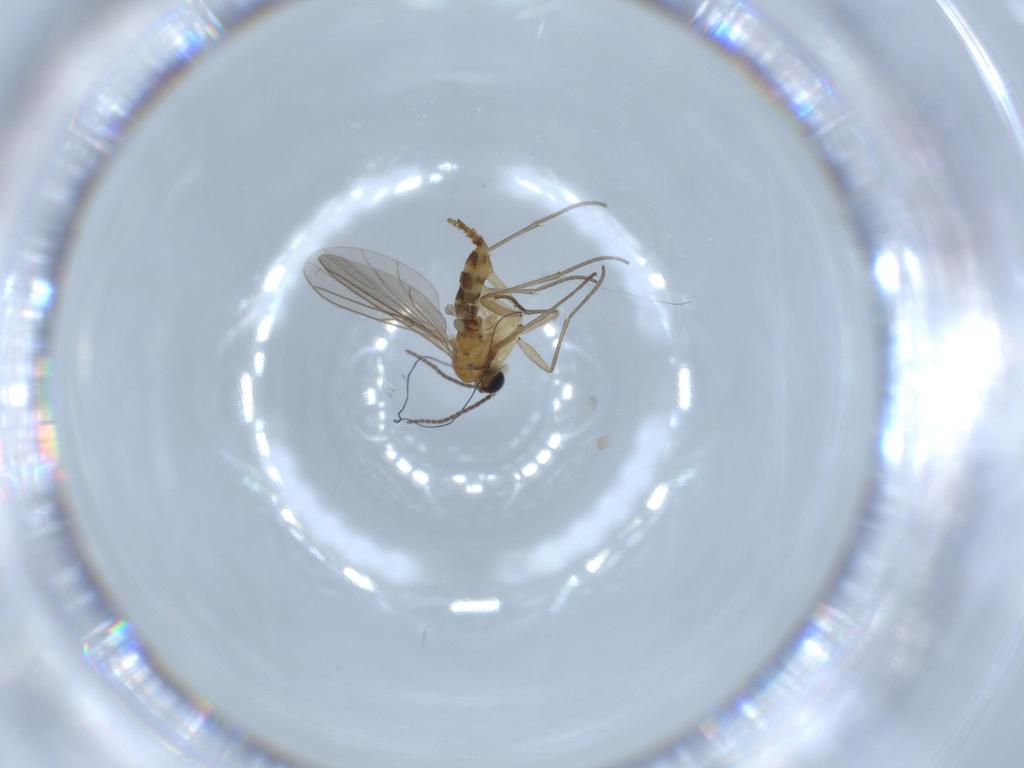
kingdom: Animalia
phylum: Arthropoda
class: Insecta
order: Diptera
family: Chironomidae
